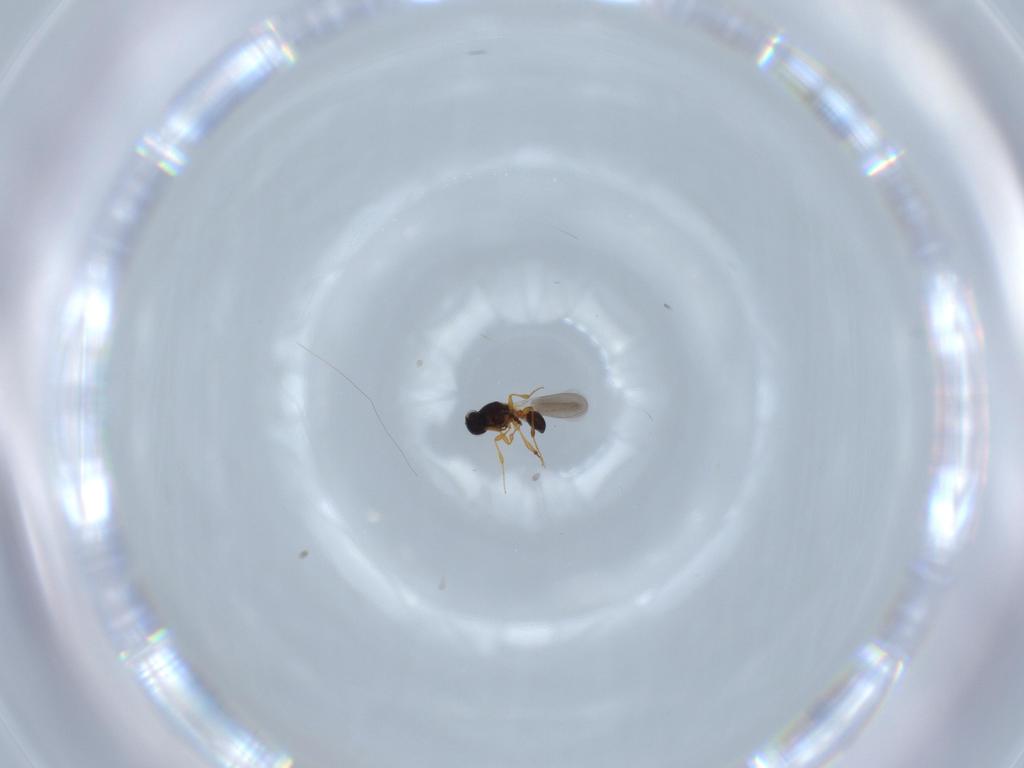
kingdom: Animalia
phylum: Arthropoda
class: Insecta
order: Hymenoptera
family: Platygastridae
